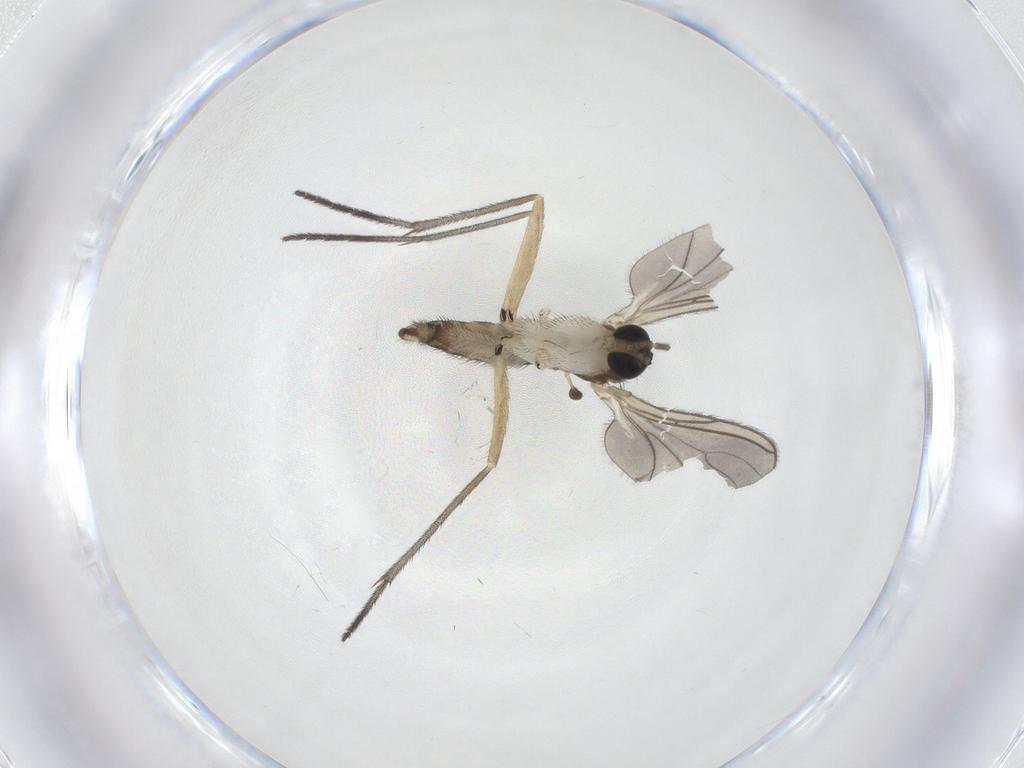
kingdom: Animalia
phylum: Arthropoda
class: Insecta
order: Diptera
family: Sciaridae
